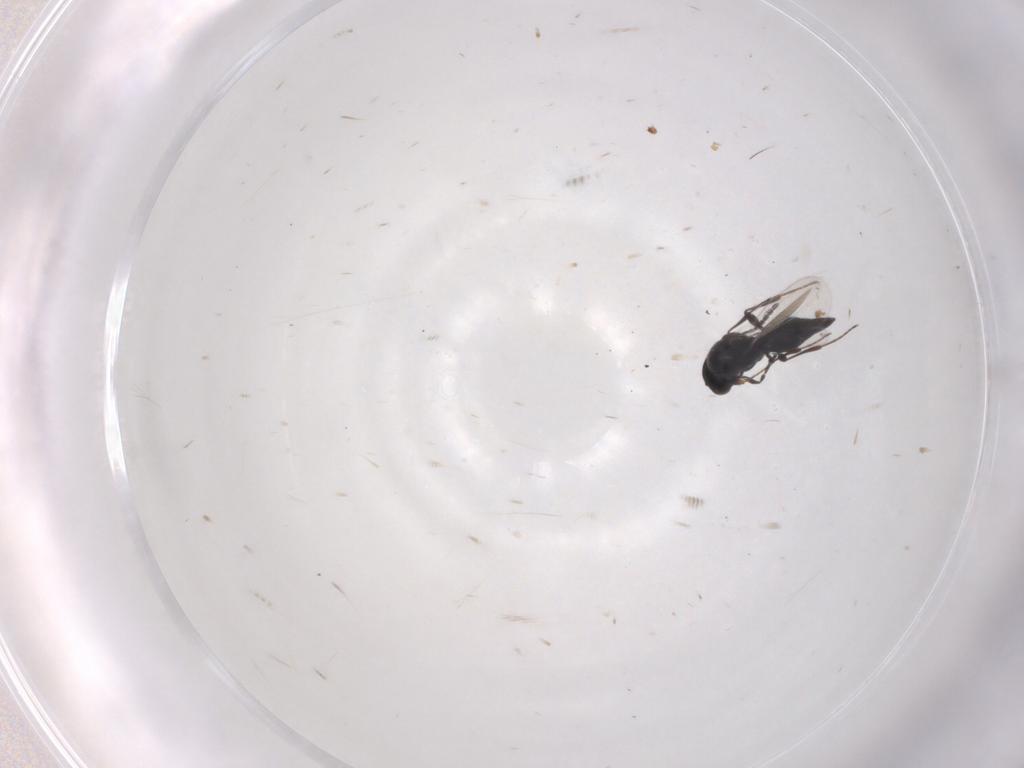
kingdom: Animalia
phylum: Arthropoda
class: Insecta
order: Hymenoptera
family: Platygastridae
